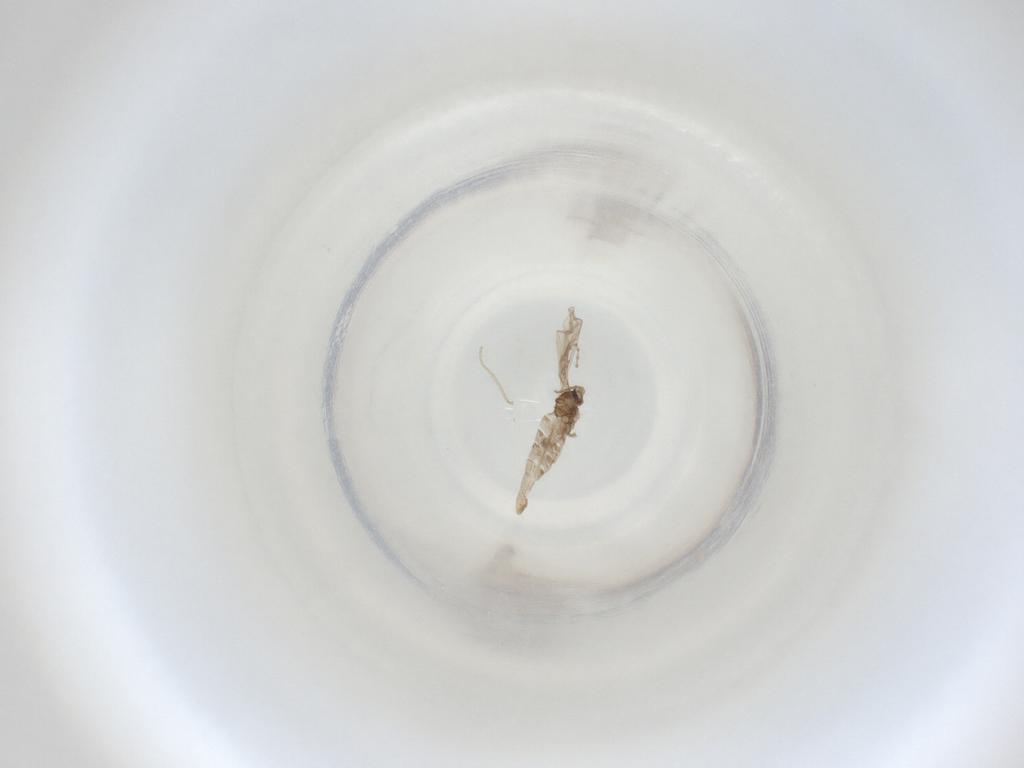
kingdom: Animalia
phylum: Arthropoda
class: Insecta
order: Diptera
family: Cecidomyiidae
